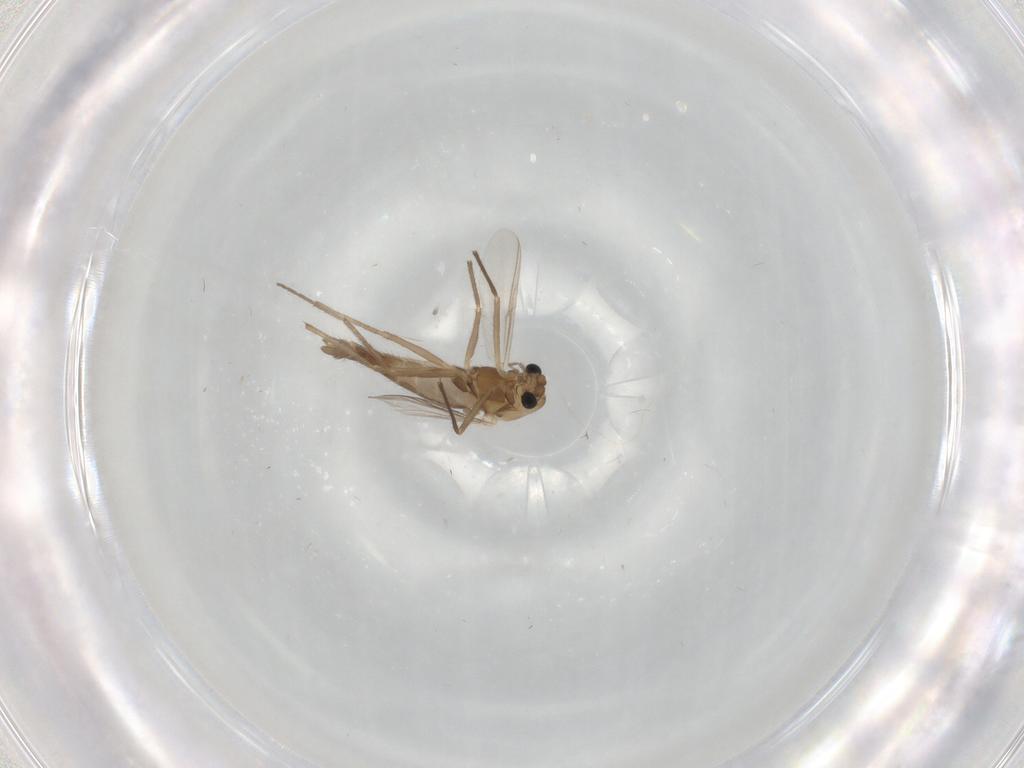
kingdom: Animalia
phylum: Arthropoda
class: Insecta
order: Diptera
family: Chironomidae
